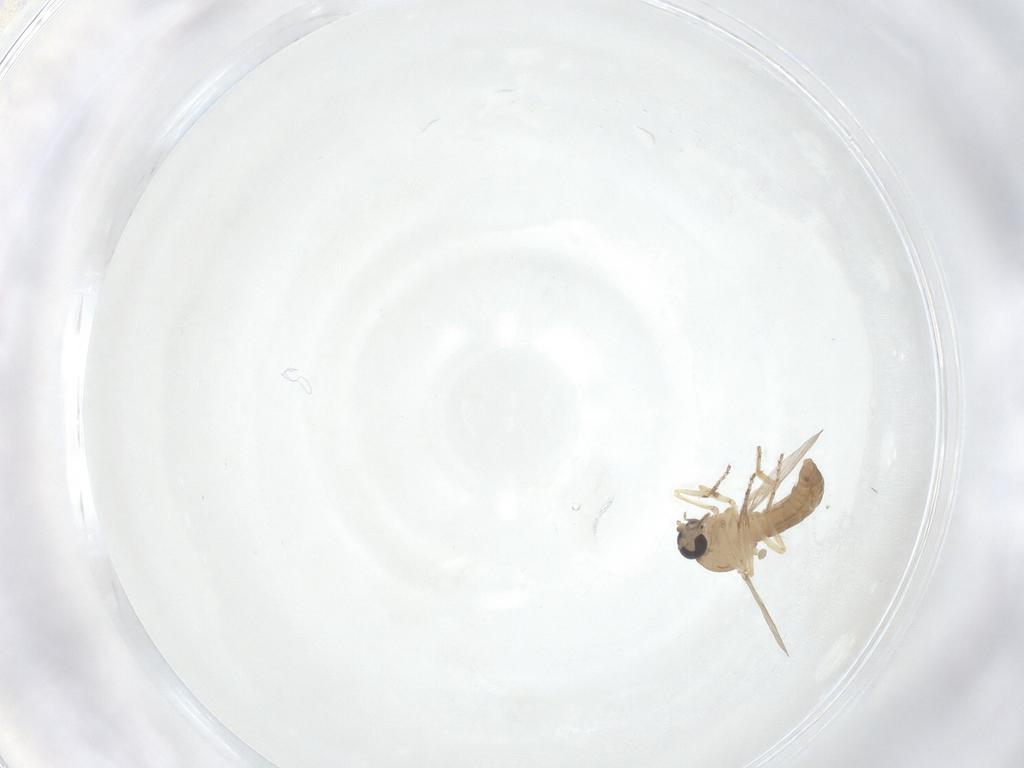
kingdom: Animalia
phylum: Arthropoda
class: Insecta
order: Diptera
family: Ceratopogonidae
